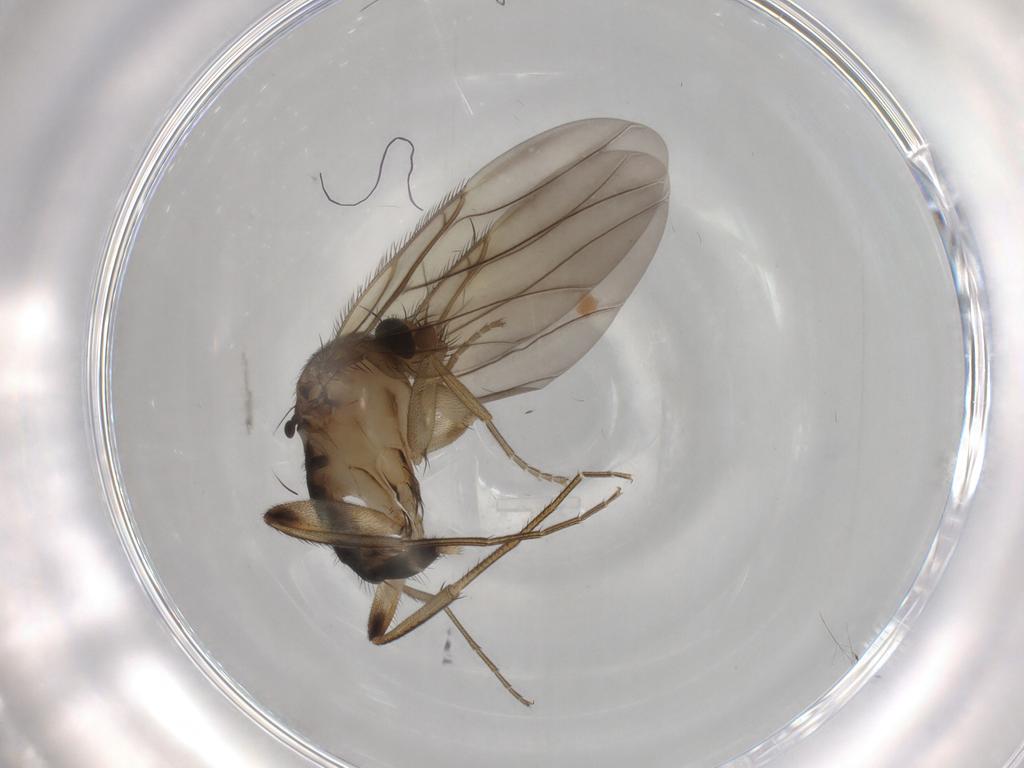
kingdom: Animalia
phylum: Arthropoda
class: Insecta
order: Diptera
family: Phoridae
